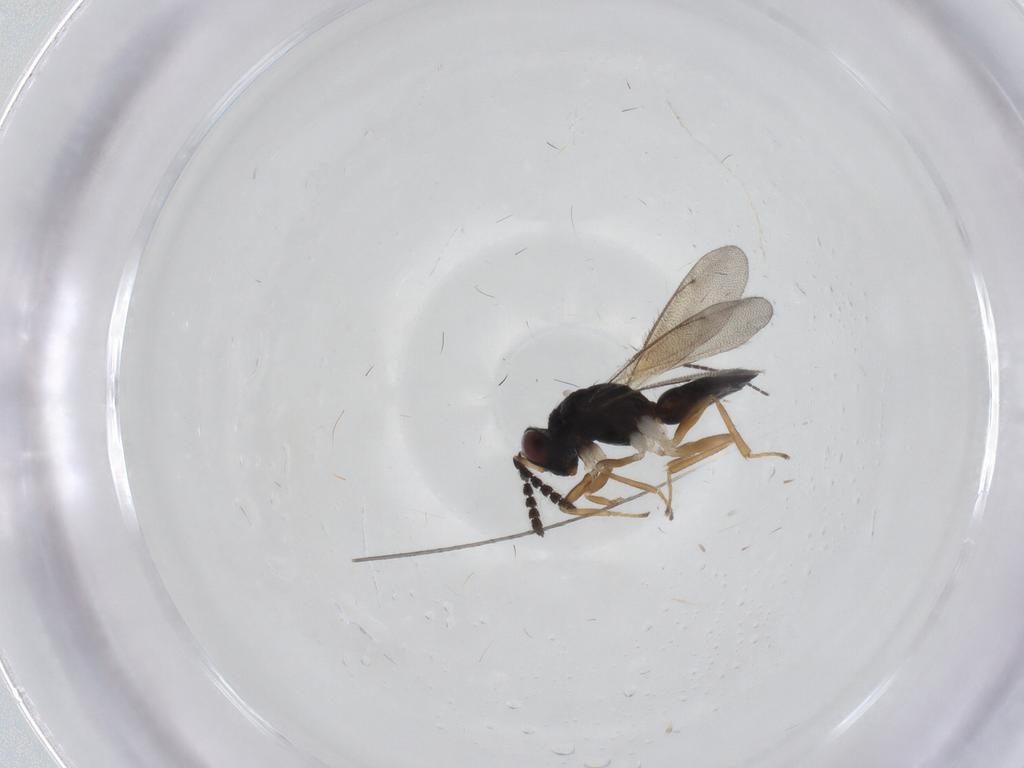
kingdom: Animalia
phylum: Arthropoda
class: Insecta
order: Hymenoptera
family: Eulophidae
